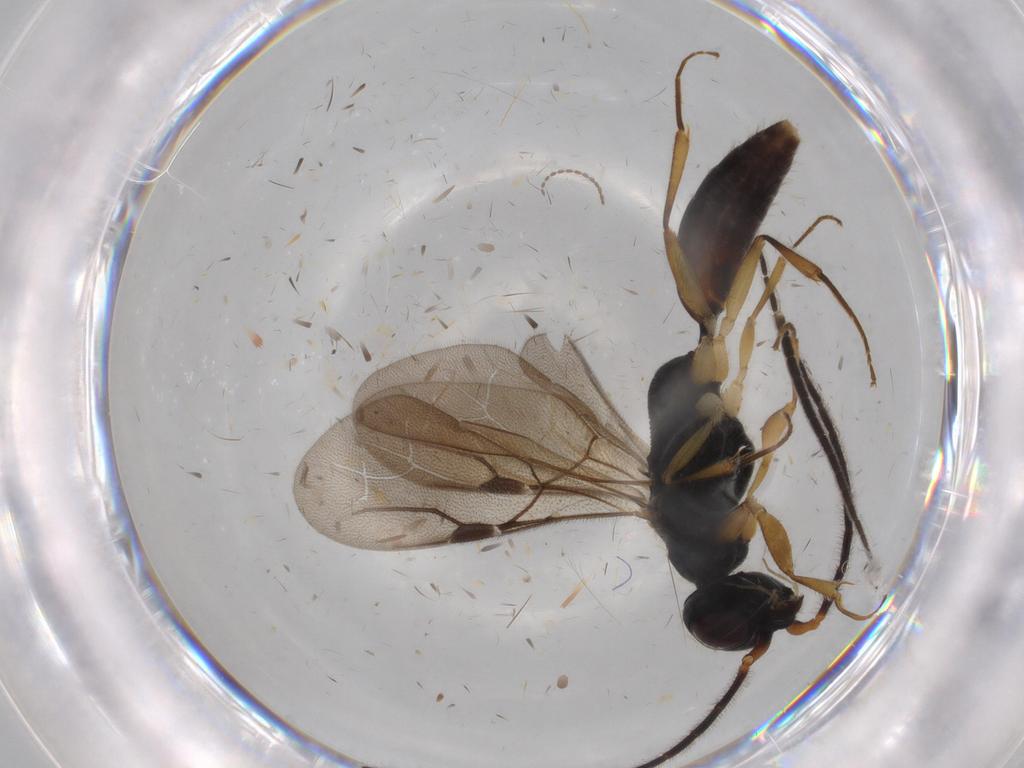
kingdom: Animalia
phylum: Arthropoda
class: Insecta
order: Hymenoptera
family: Bethylidae
